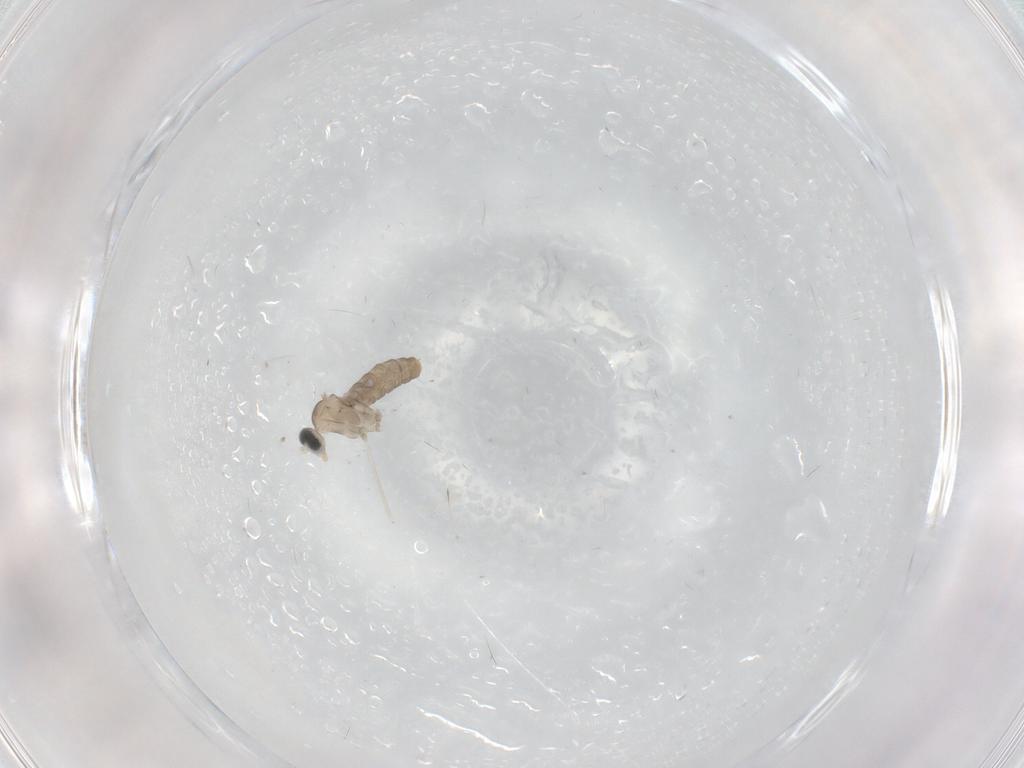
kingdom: Animalia
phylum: Arthropoda
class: Insecta
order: Diptera
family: Cecidomyiidae
